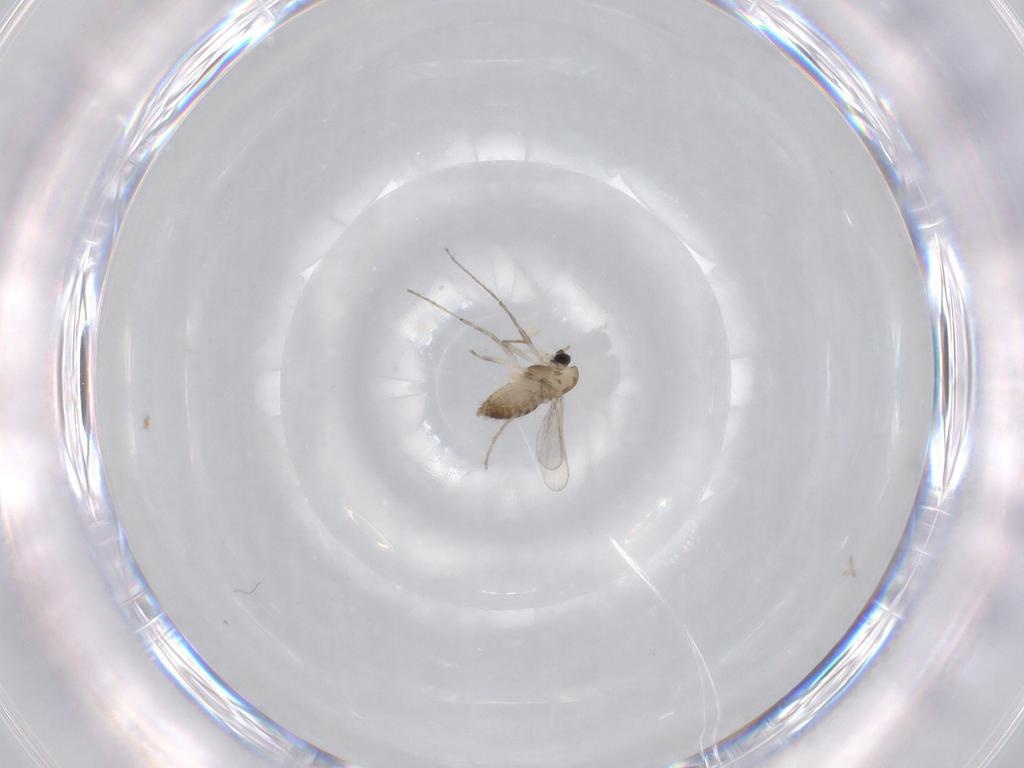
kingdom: Animalia
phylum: Arthropoda
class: Insecta
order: Diptera
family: Chironomidae
